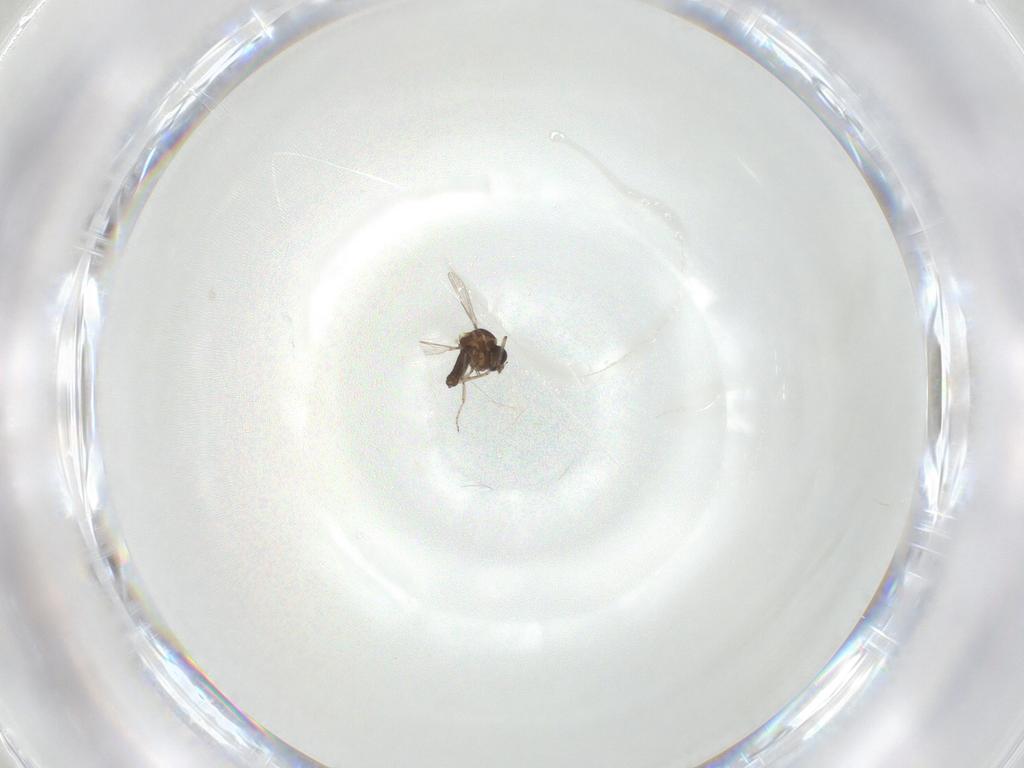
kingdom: Animalia
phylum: Arthropoda
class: Insecta
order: Diptera
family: Ceratopogonidae
